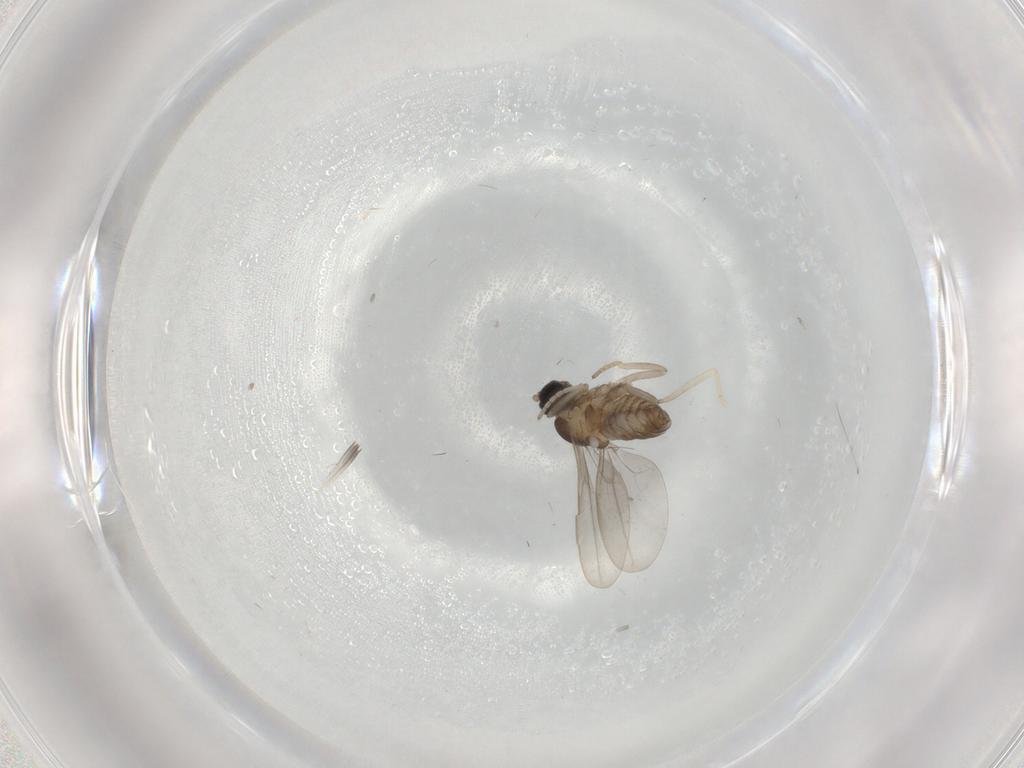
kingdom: Animalia
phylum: Arthropoda
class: Insecta
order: Diptera
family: Cecidomyiidae
